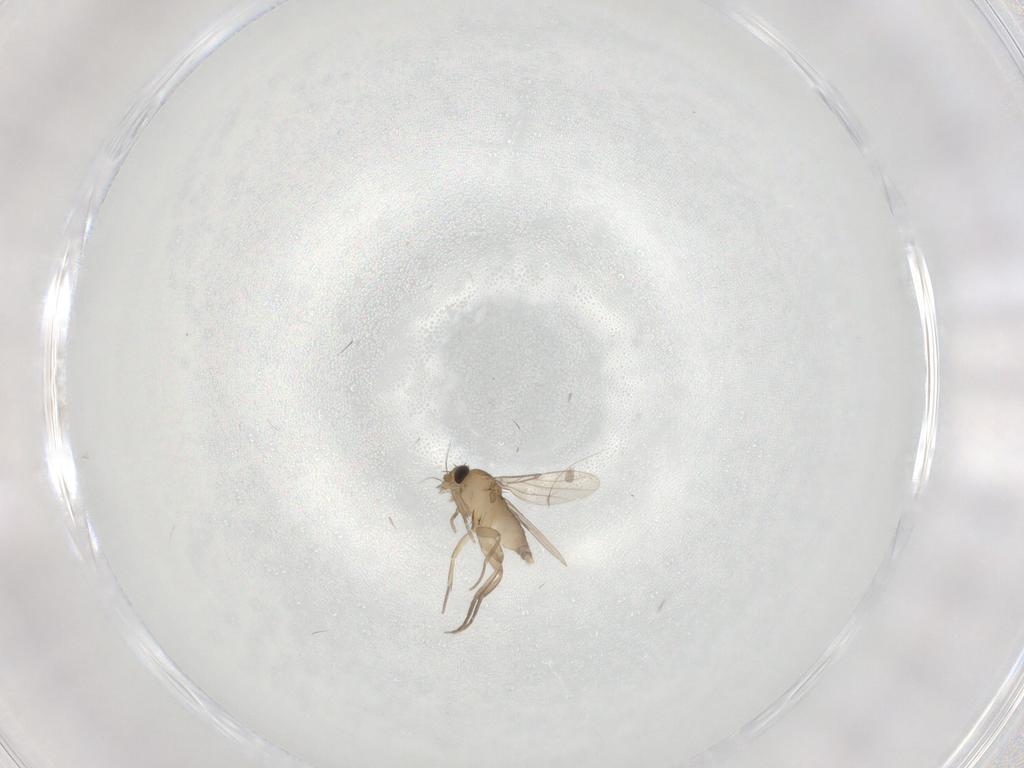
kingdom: Animalia
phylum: Arthropoda
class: Insecta
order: Diptera
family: Phoridae
